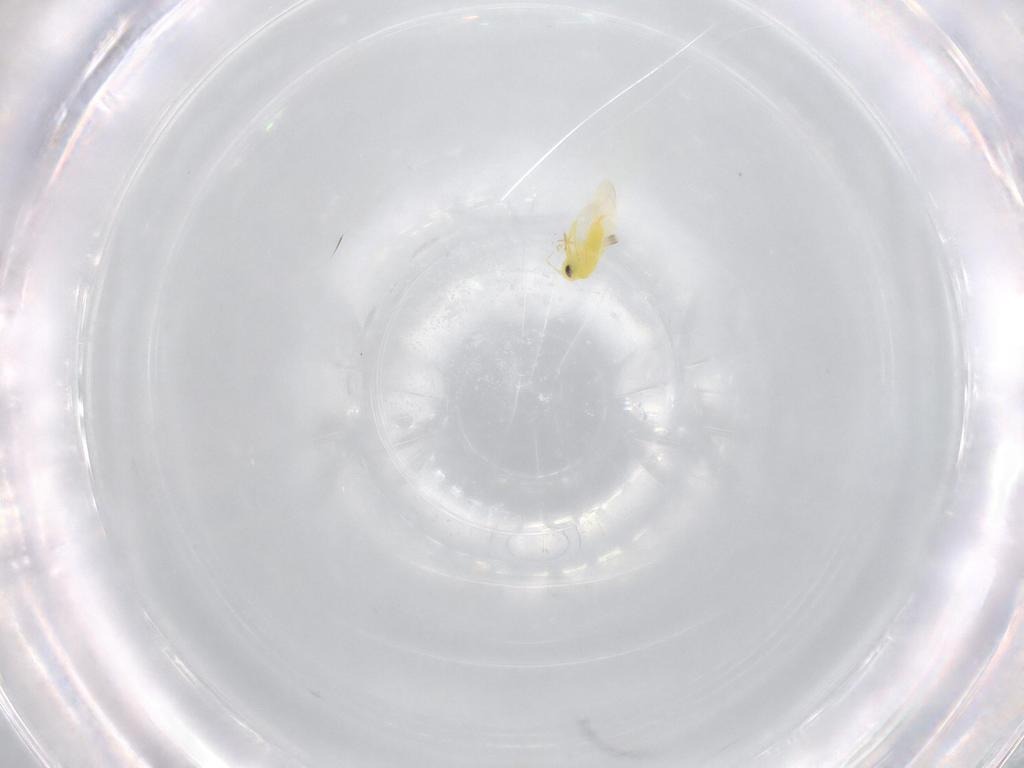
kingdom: Animalia
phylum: Arthropoda
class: Insecta
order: Hemiptera
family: Aleyrodidae
